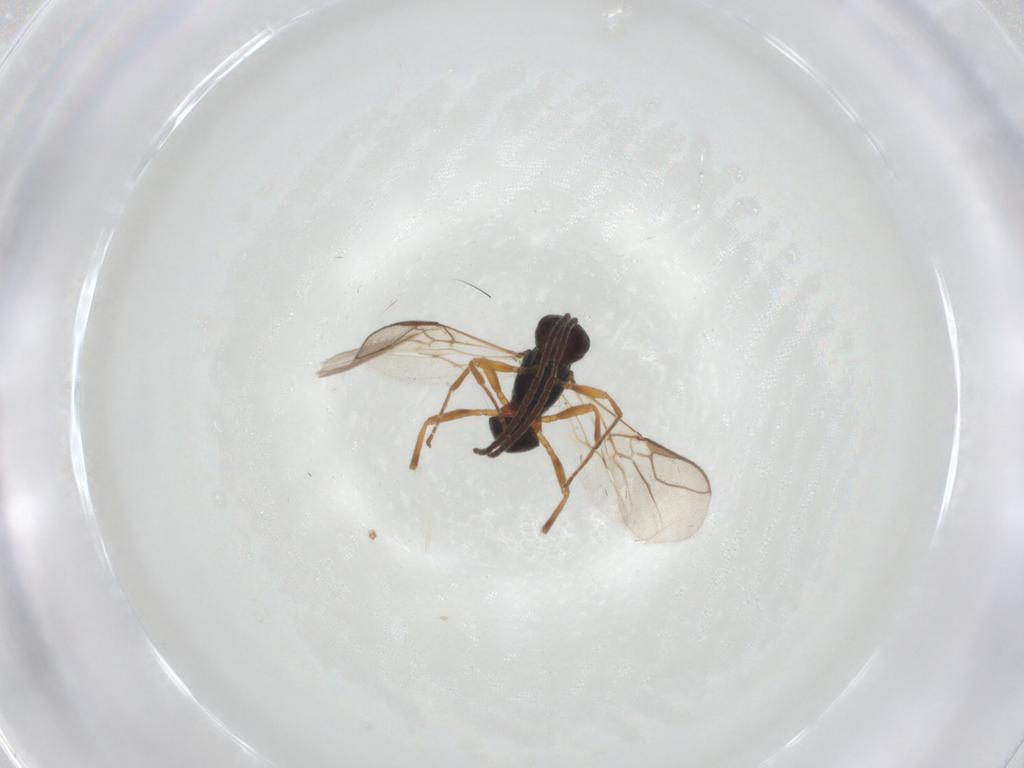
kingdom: Animalia
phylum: Arthropoda
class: Insecta
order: Hymenoptera
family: Braconidae
